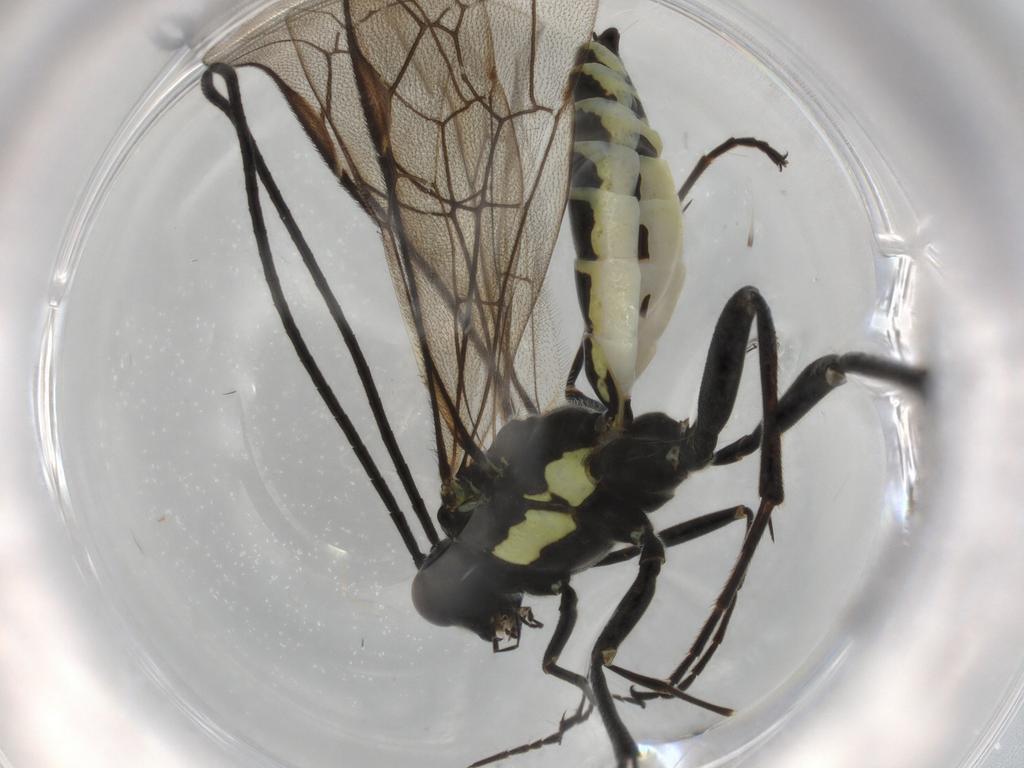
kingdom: Animalia
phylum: Arthropoda
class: Insecta
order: Hymenoptera
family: Ichneumonidae
